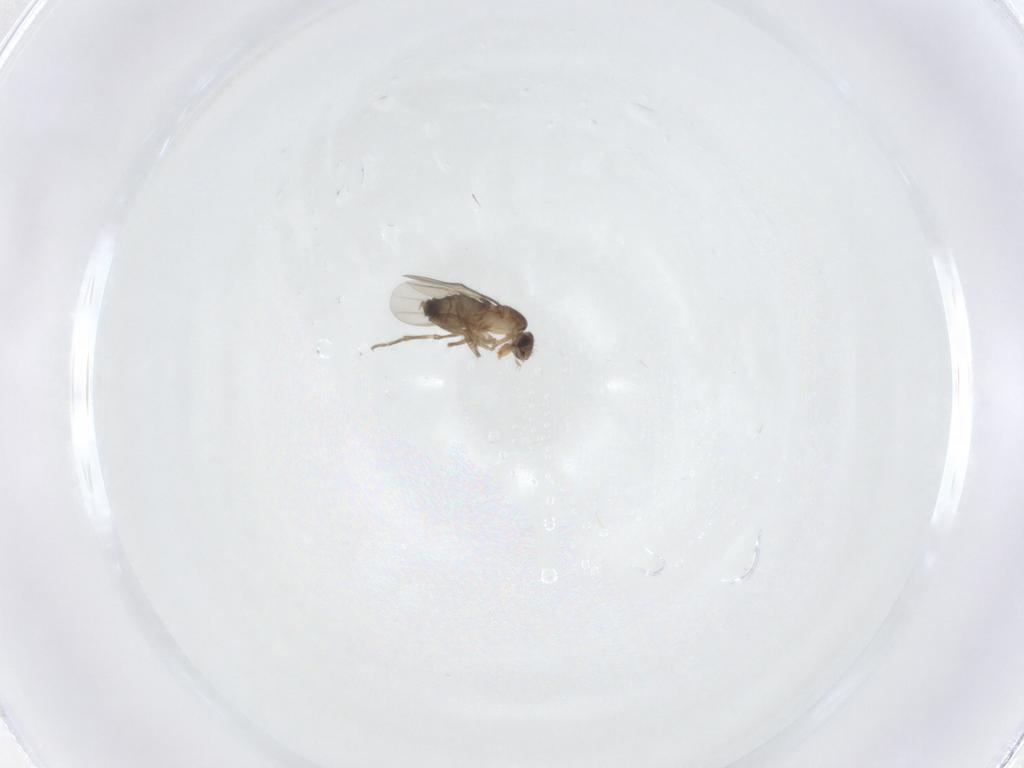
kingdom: Animalia
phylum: Arthropoda
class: Insecta
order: Diptera
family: Phoridae
